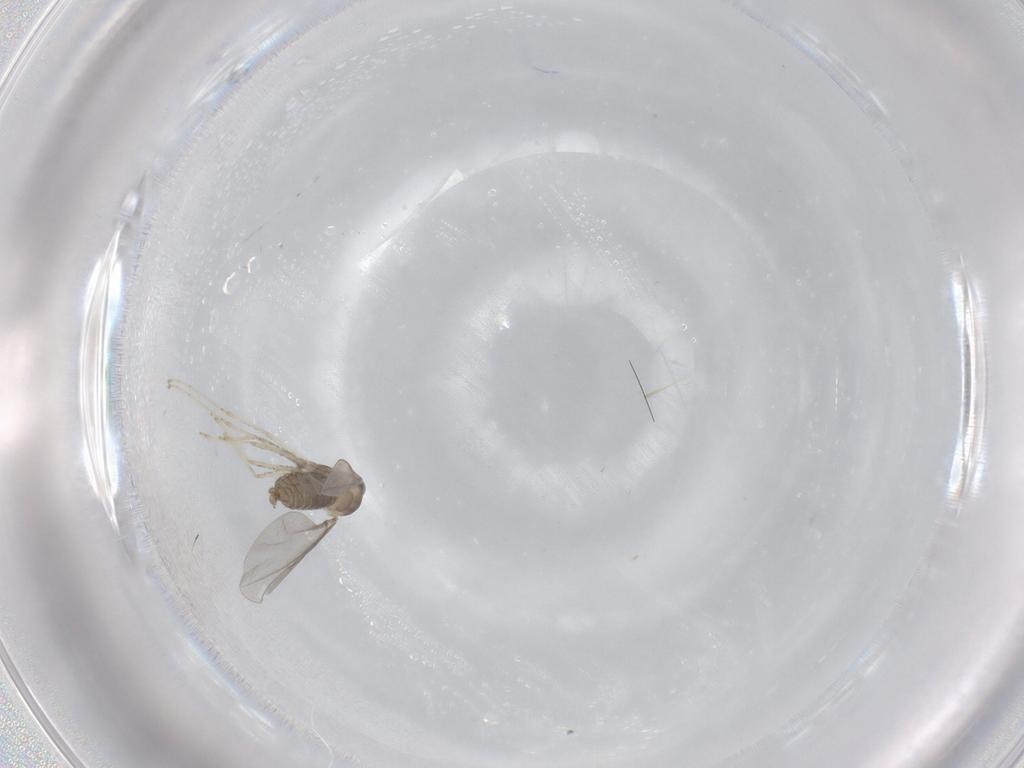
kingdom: Animalia
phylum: Arthropoda
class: Insecta
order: Diptera
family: Cecidomyiidae
